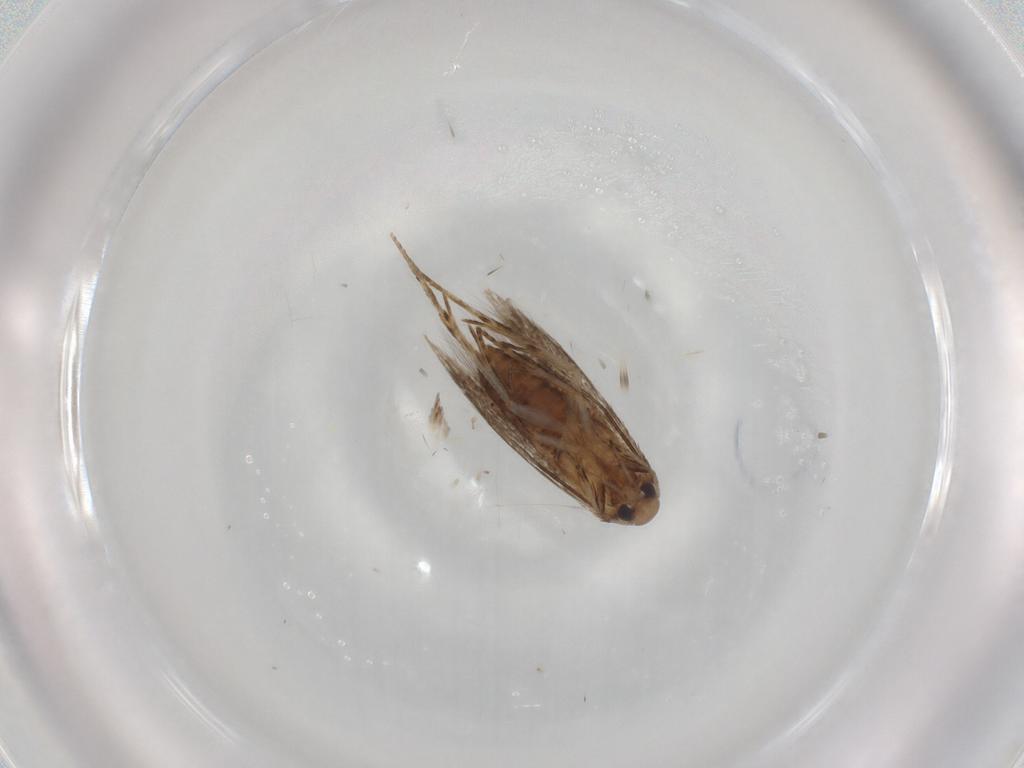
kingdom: Animalia
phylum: Arthropoda
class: Insecta
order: Lepidoptera
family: Cosmopterigidae
